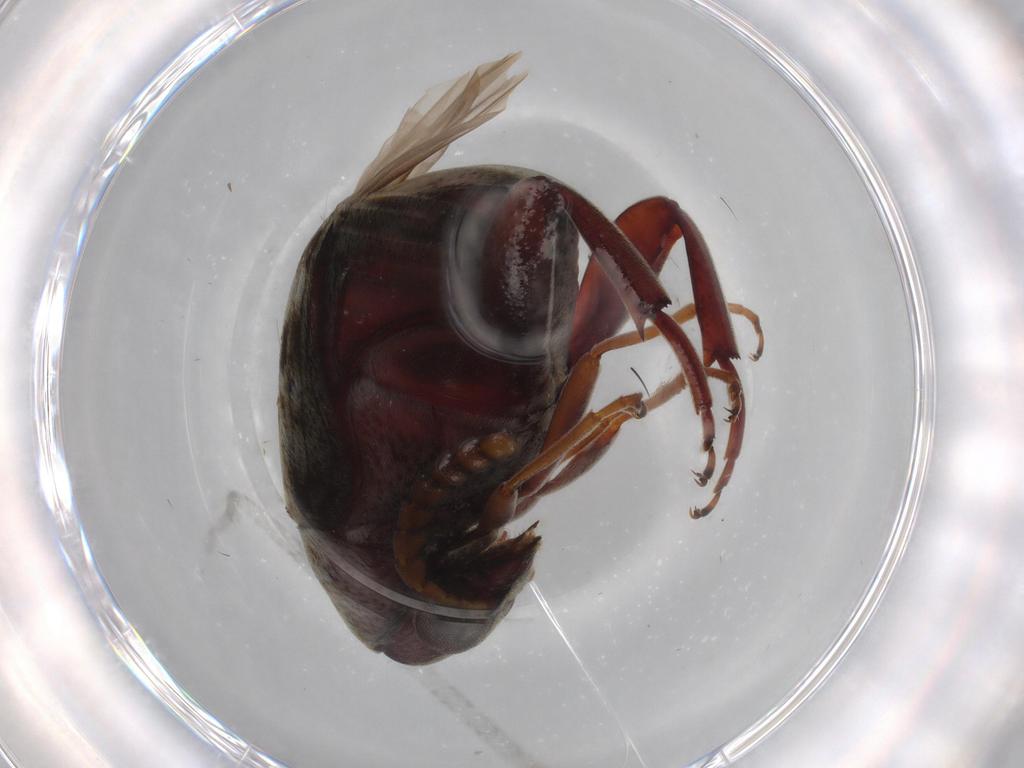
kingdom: Animalia
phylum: Arthropoda
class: Insecta
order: Coleoptera
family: Chrysomelidae
